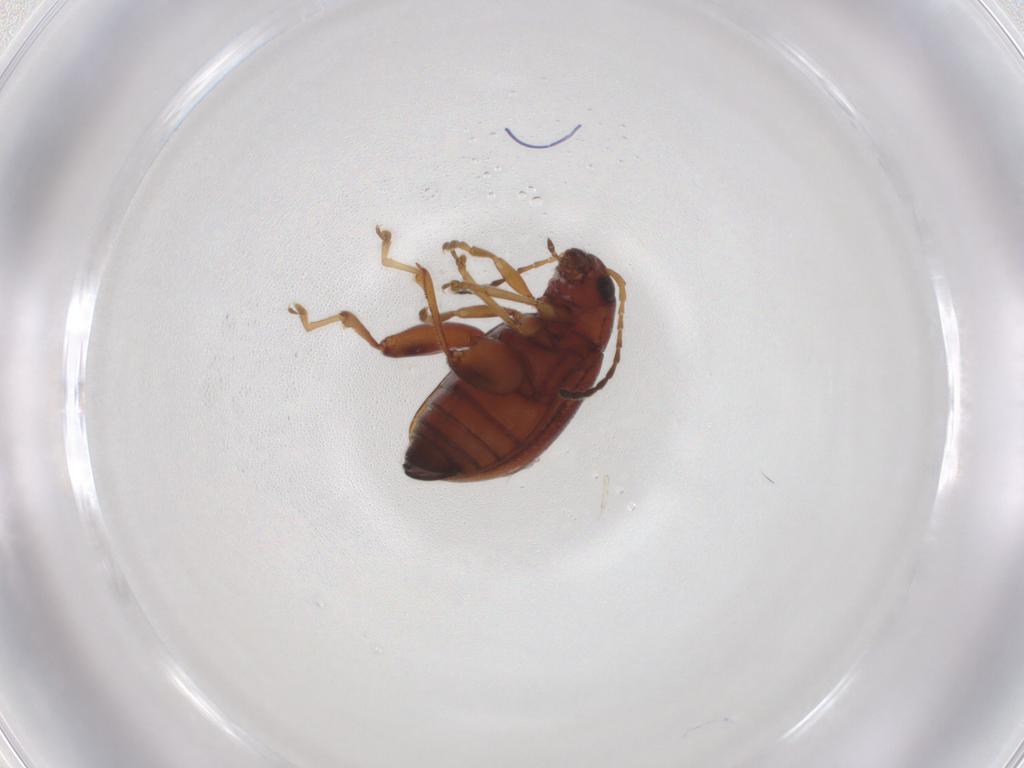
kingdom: Animalia
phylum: Arthropoda
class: Insecta
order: Coleoptera
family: Chrysomelidae
